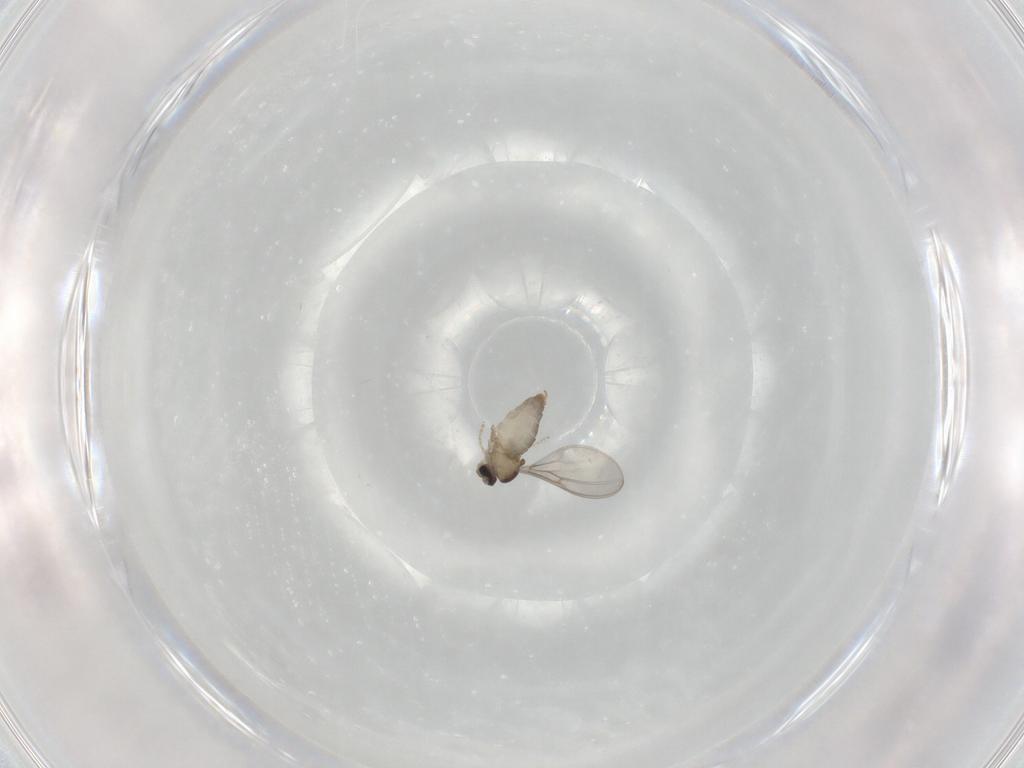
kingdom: Animalia
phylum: Arthropoda
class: Insecta
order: Diptera
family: Cecidomyiidae
